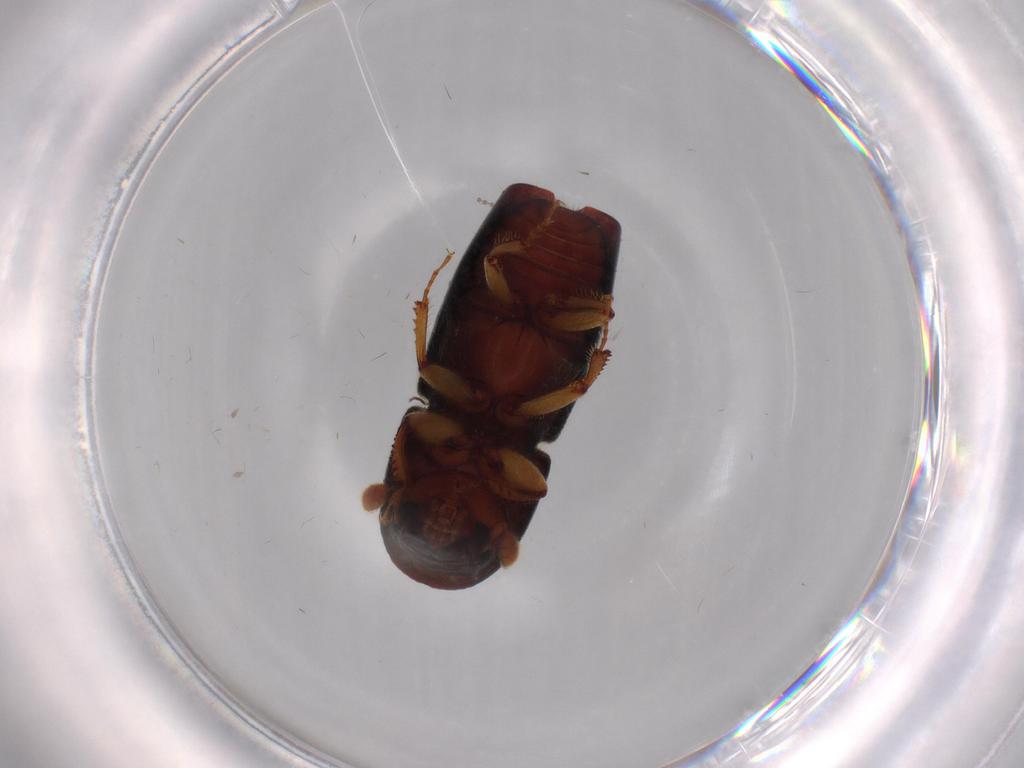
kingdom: Animalia
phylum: Arthropoda
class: Insecta
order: Coleoptera
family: Curculionidae
